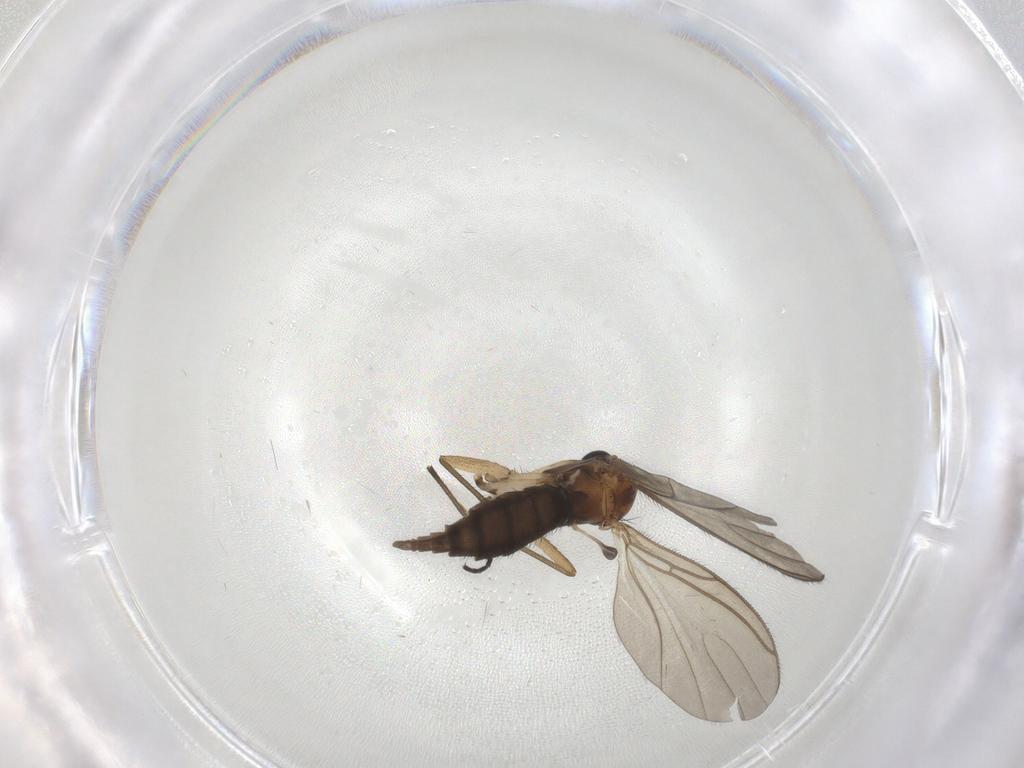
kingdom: Animalia
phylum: Arthropoda
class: Insecta
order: Diptera
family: Sciaridae
